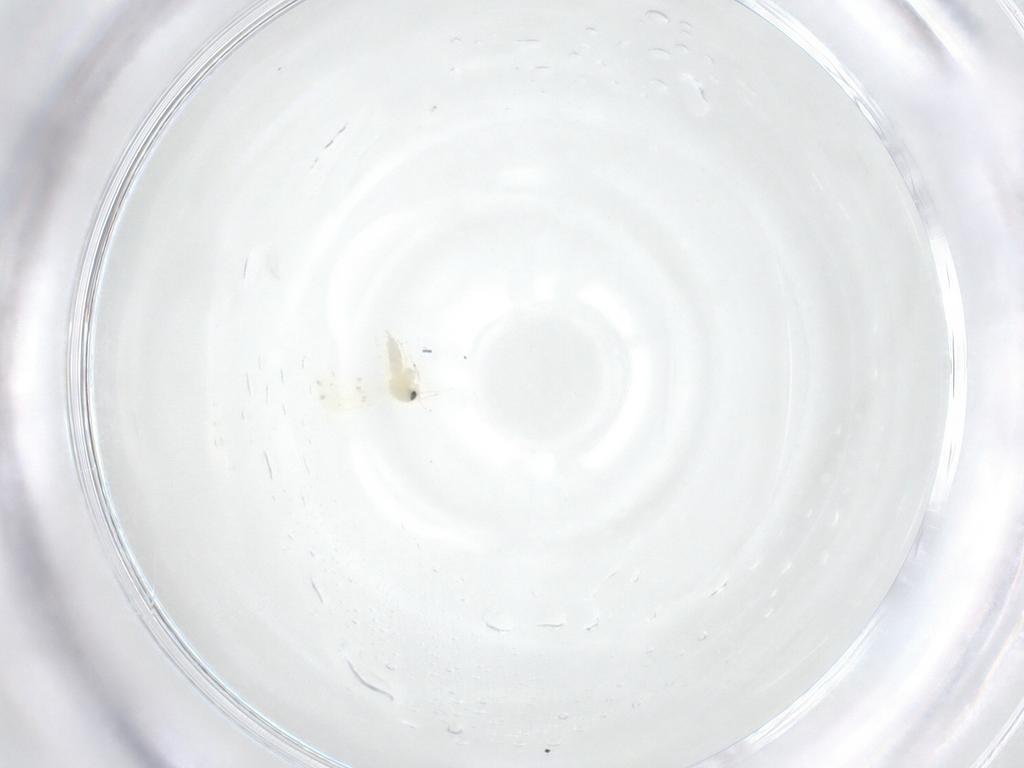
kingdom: Animalia
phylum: Arthropoda
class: Insecta
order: Hemiptera
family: Aleyrodidae
